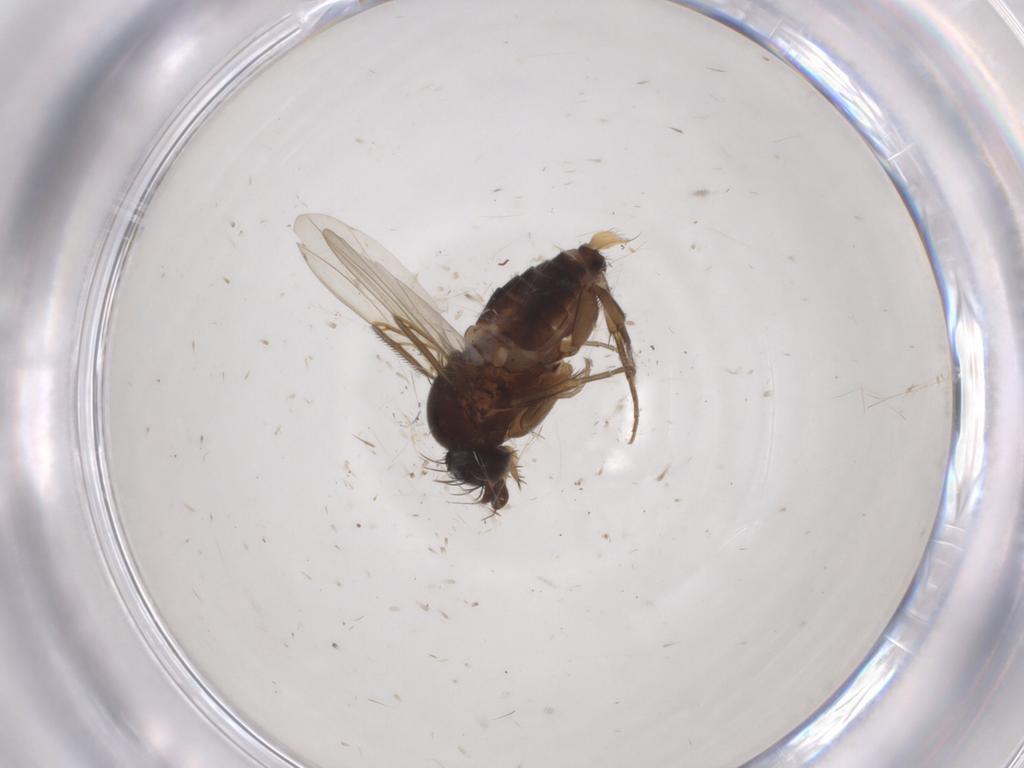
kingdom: Animalia
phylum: Arthropoda
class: Insecta
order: Diptera
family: Phoridae
